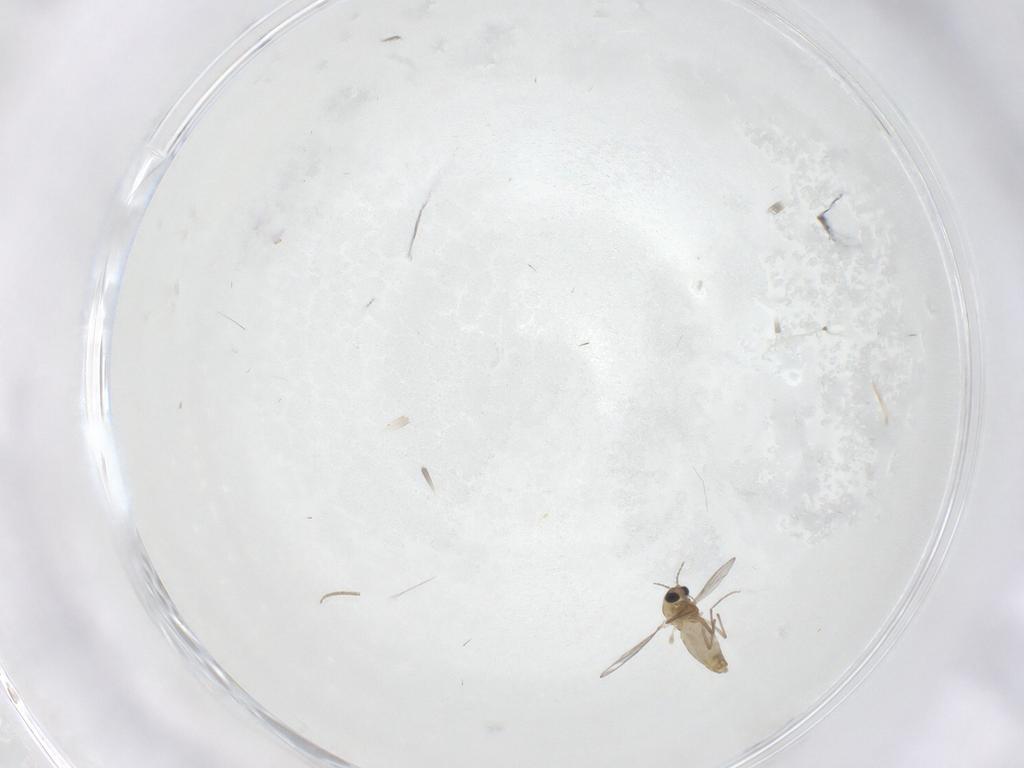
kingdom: Animalia
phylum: Arthropoda
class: Insecta
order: Diptera
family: Chironomidae
